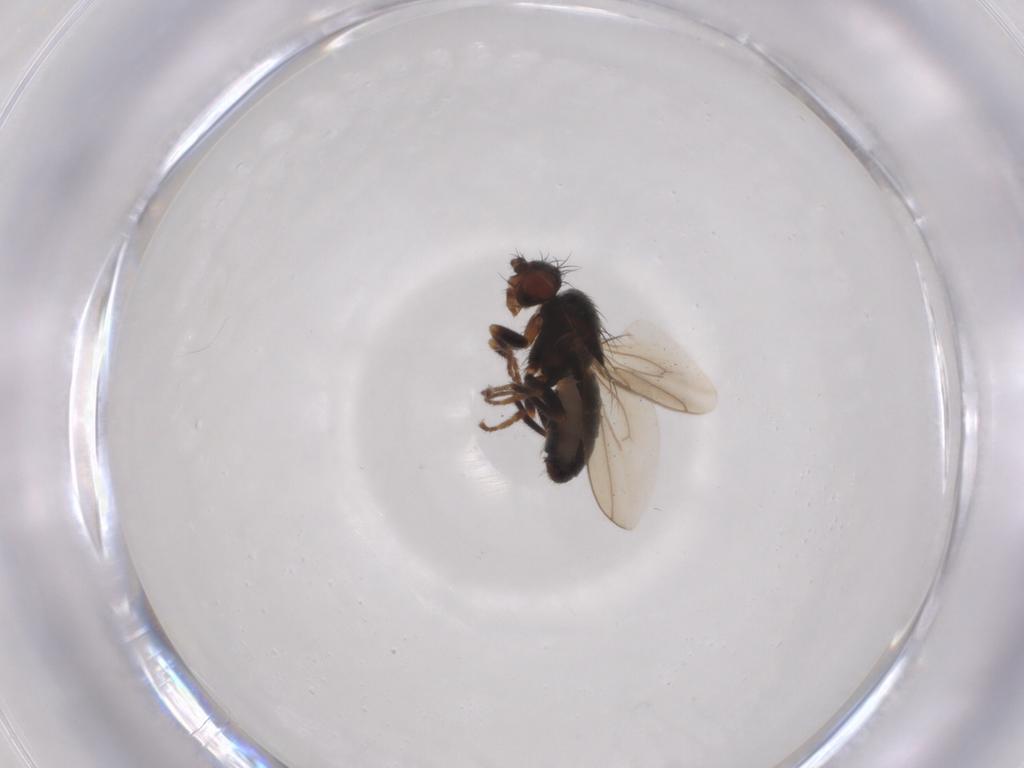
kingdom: Animalia
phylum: Arthropoda
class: Insecta
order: Diptera
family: Sphaeroceridae
